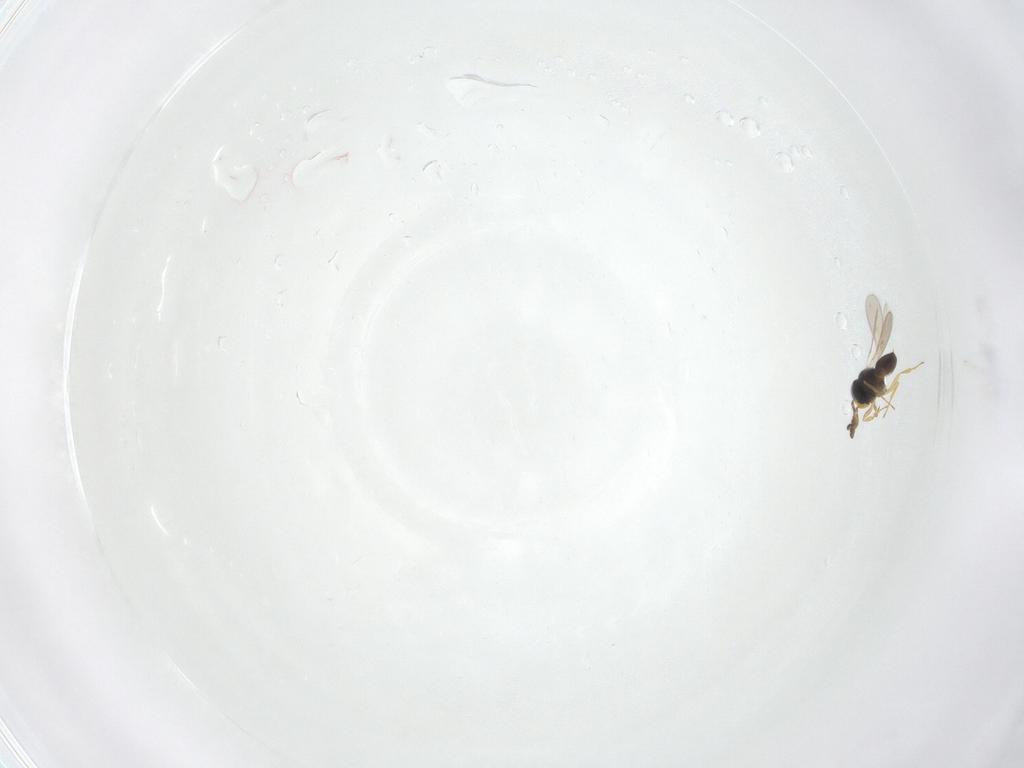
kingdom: Animalia
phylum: Arthropoda
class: Insecta
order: Hymenoptera
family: Scelionidae
